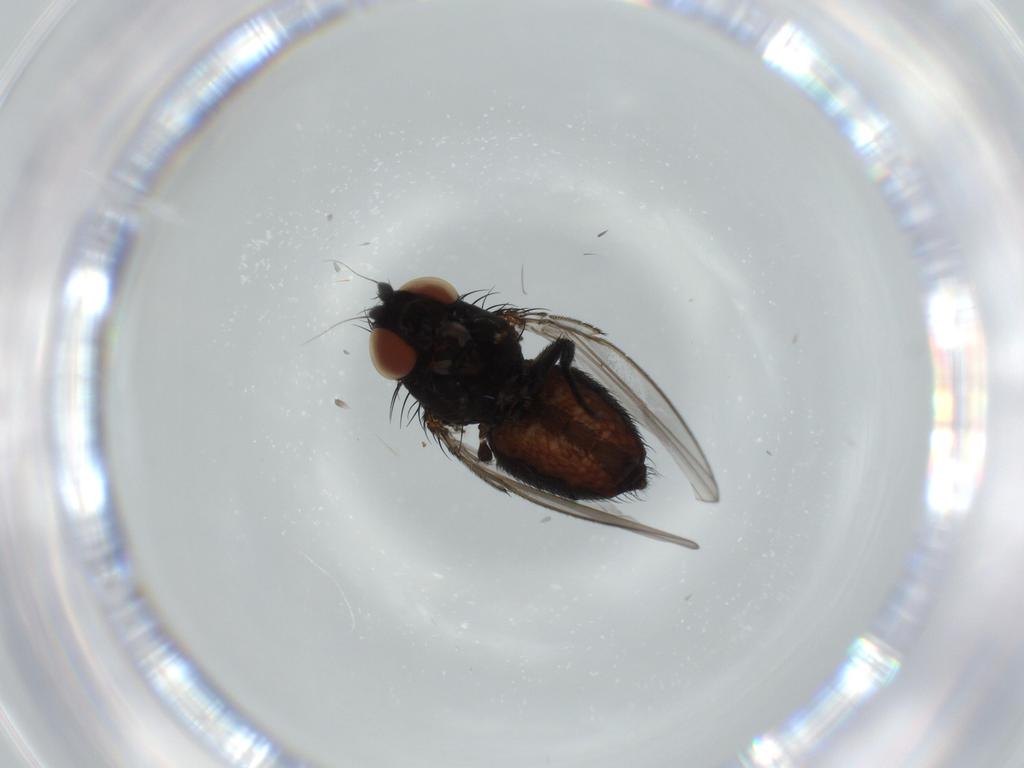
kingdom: Animalia
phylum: Arthropoda
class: Insecta
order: Diptera
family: Milichiidae
